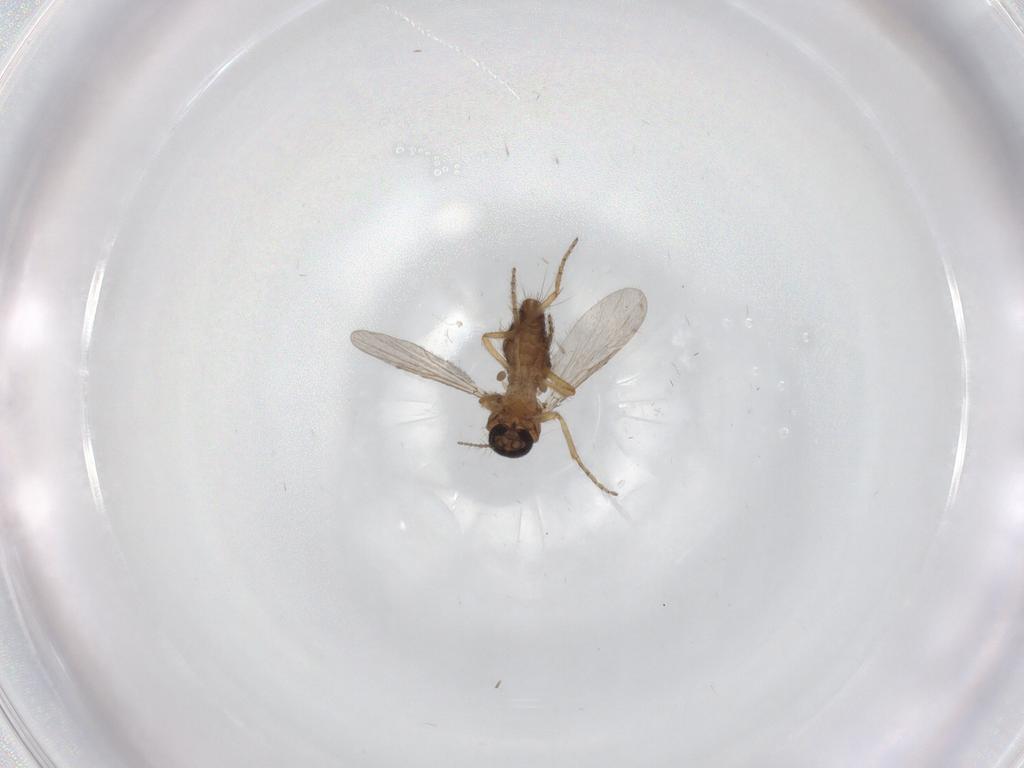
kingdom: Animalia
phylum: Arthropoda
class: Insecta
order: Diptera
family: Ceratopogonidae
